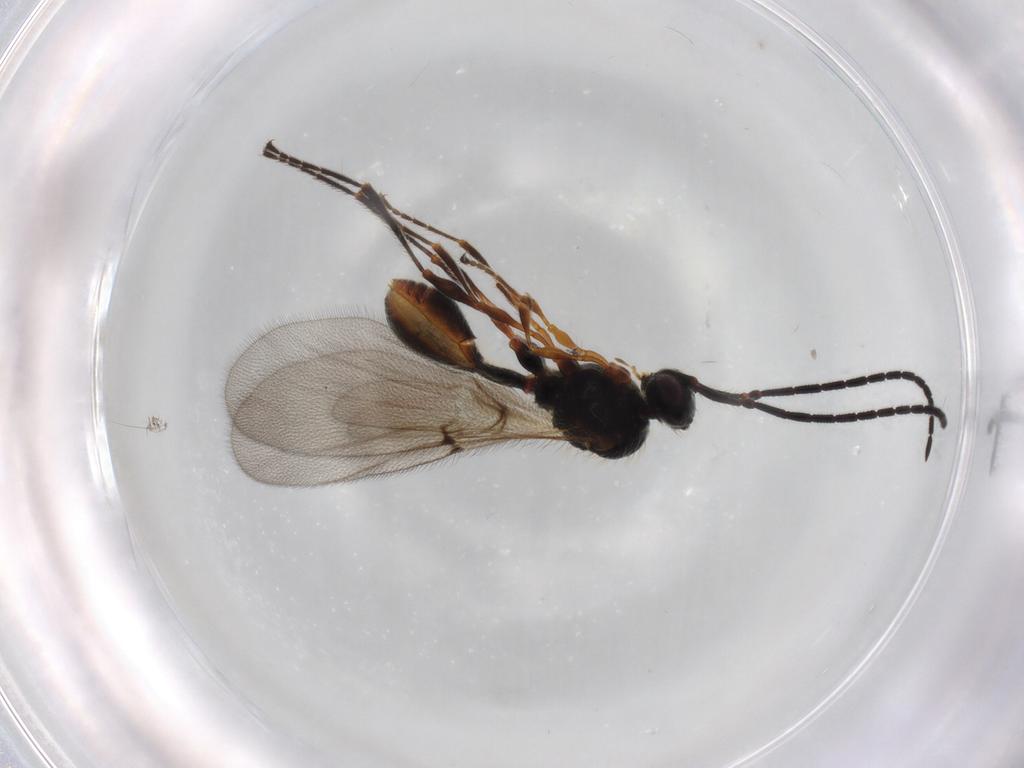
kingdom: Animalia
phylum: Arthropoda
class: Insecta
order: Hymenoptera
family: Diapriidae
